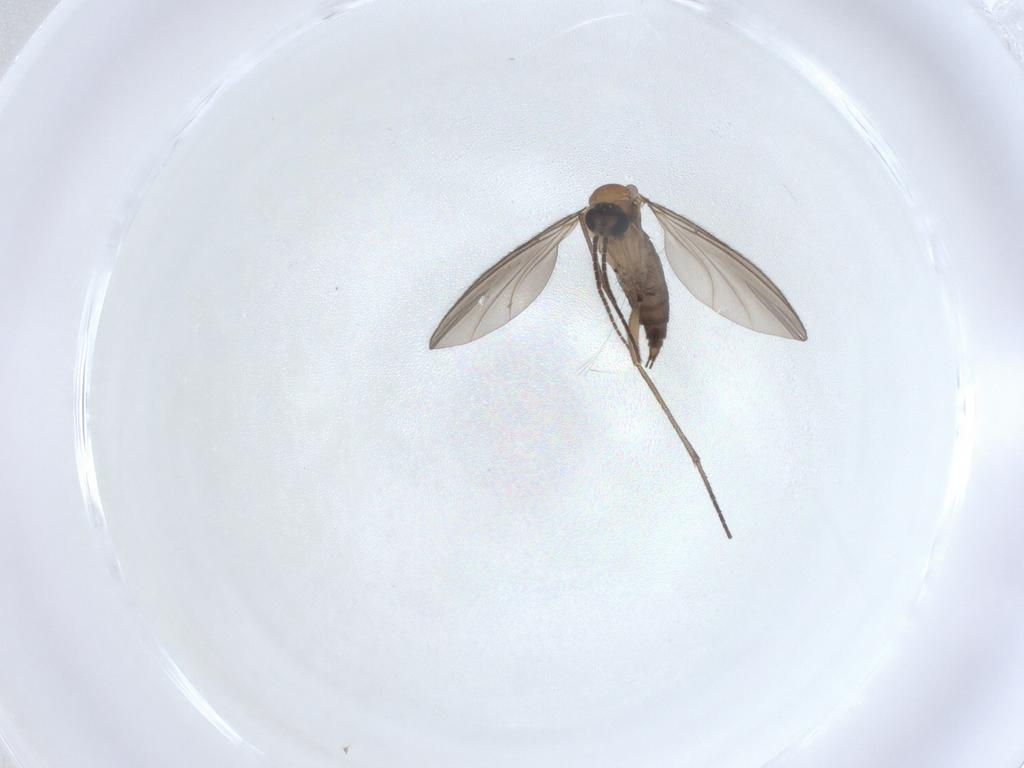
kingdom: Animalia
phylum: Arthropoda
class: Insecta
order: Diptera
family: Sciaridae
